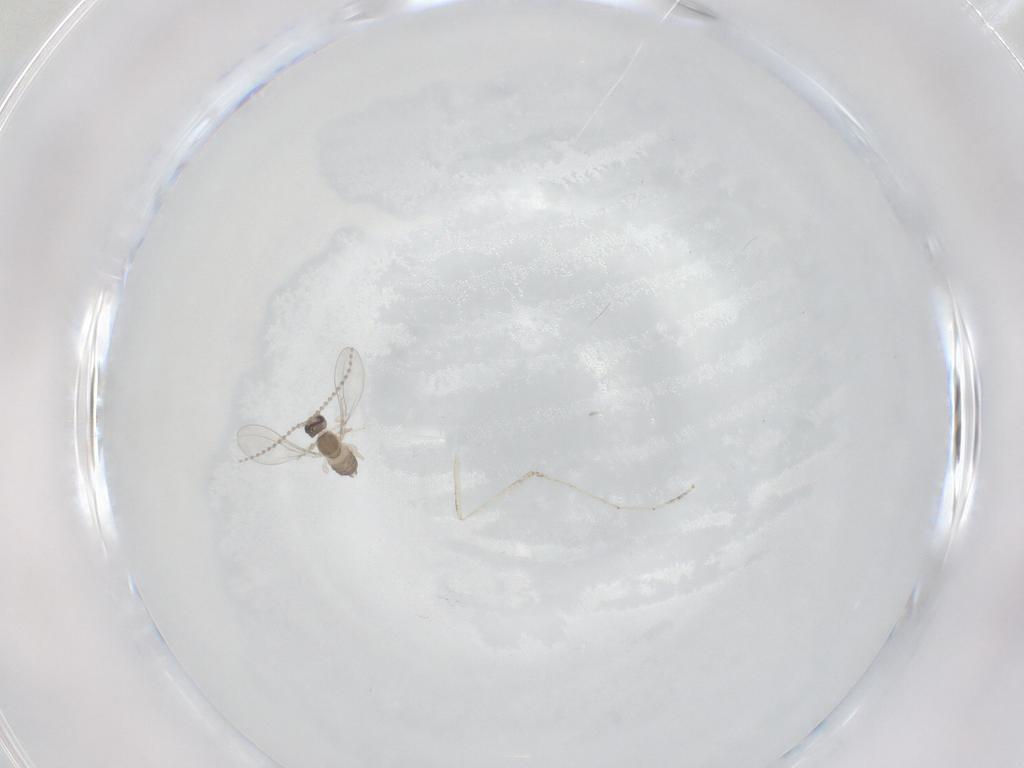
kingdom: Animalia
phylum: Arthropoda
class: Insecta
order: Diptera
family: Cecidomyiidae
